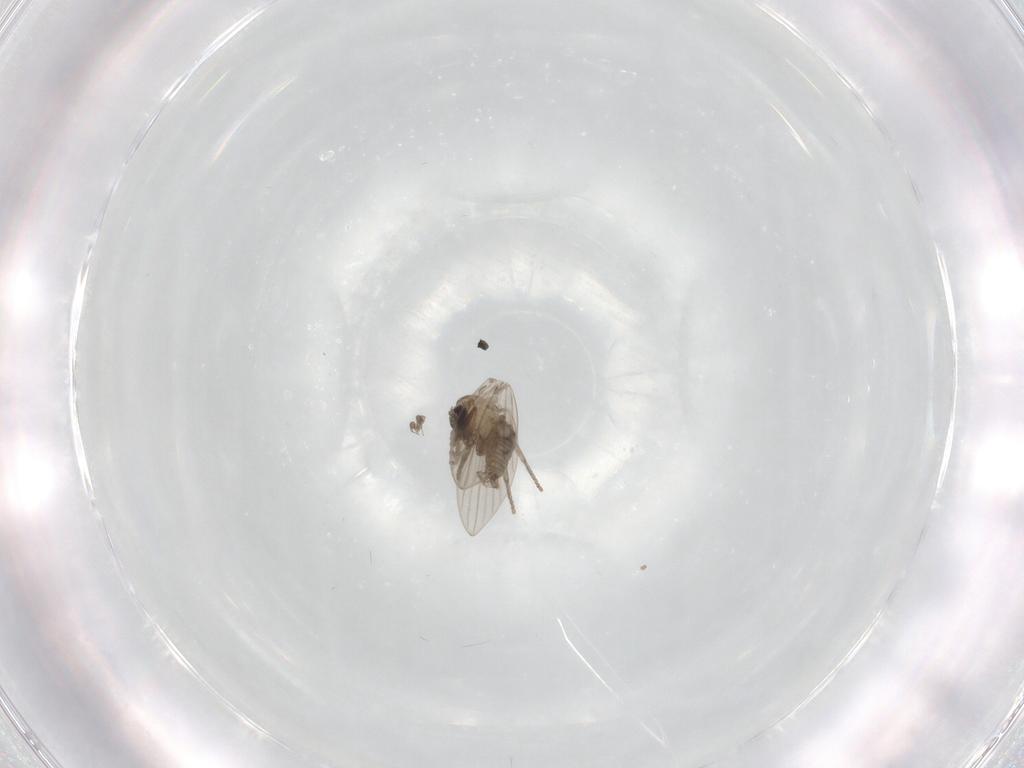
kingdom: Animalia
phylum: Arthropoda
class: Insecta
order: Diptera
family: Psychodidae
